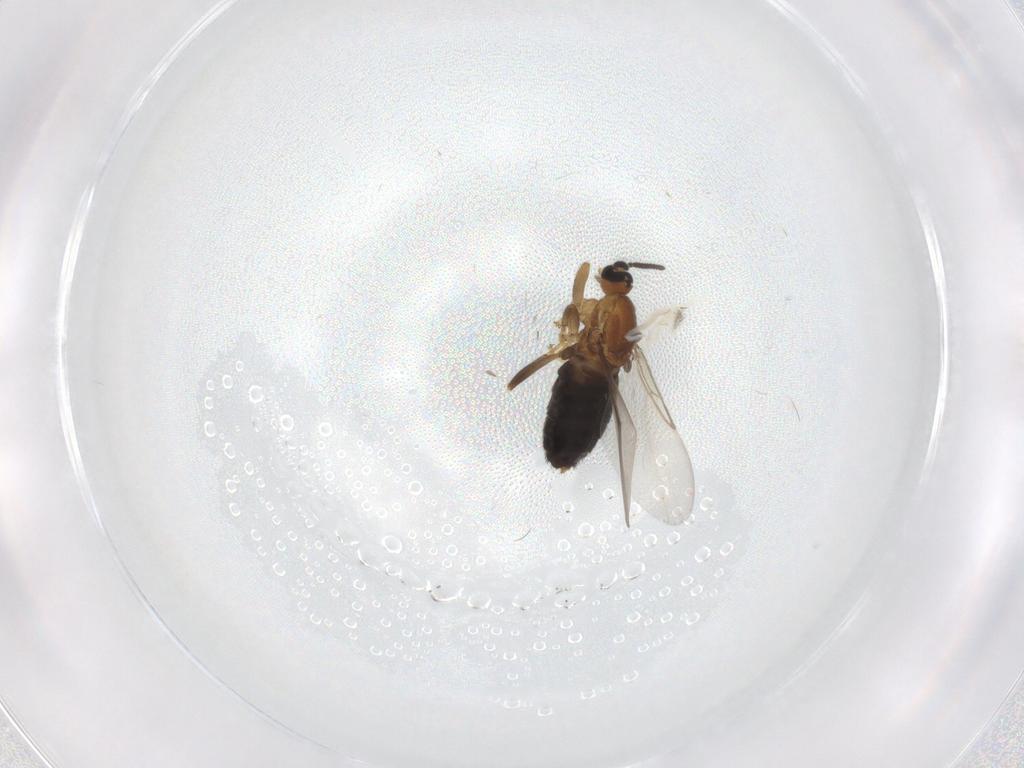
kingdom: Animalia
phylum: Arthropoda
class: Insecta
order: Diptera
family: Scatopsidae
